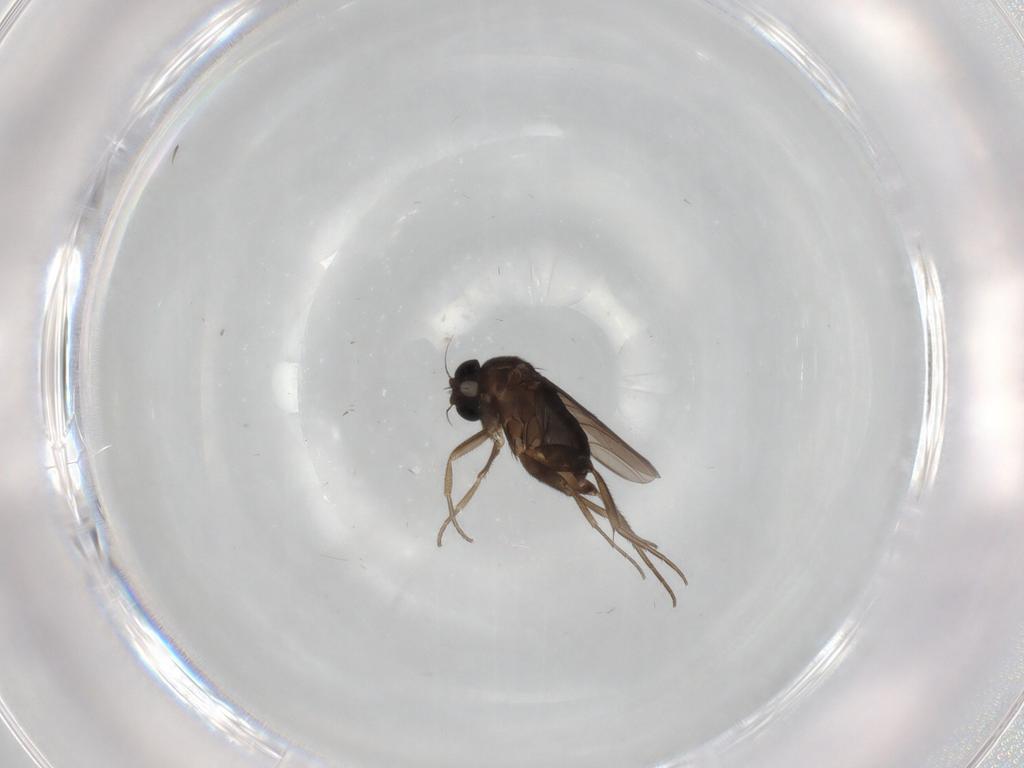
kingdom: Animalia
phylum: Arthropoda
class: Insecta
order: Diptera
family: Phoridae
